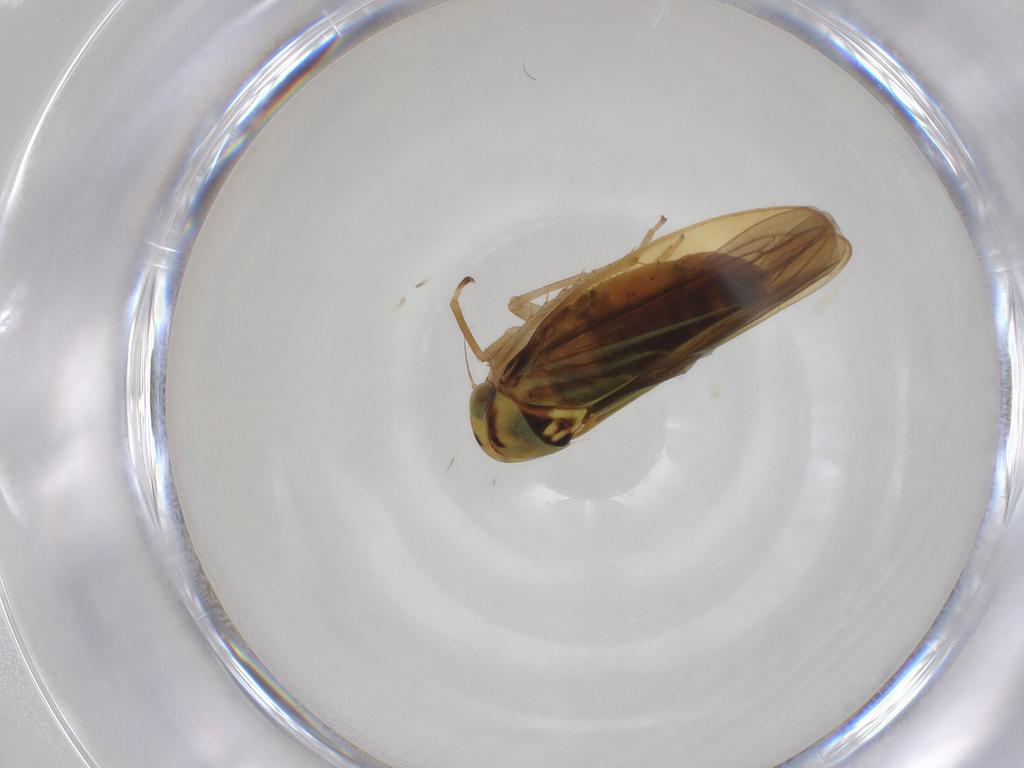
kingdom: Animalia
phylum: Arthropoda
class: Insecta
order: Hemiptera
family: Cicadellidae
